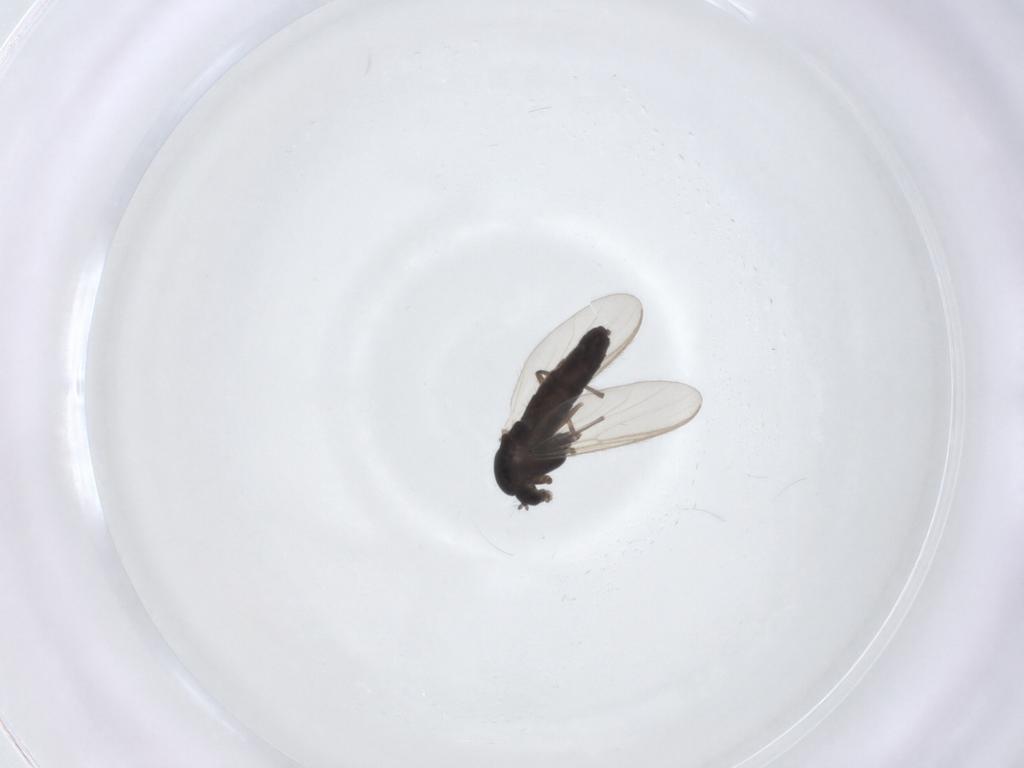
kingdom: Animalia
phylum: Arthropoda
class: Insecta
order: Diptera
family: Chironomidae
